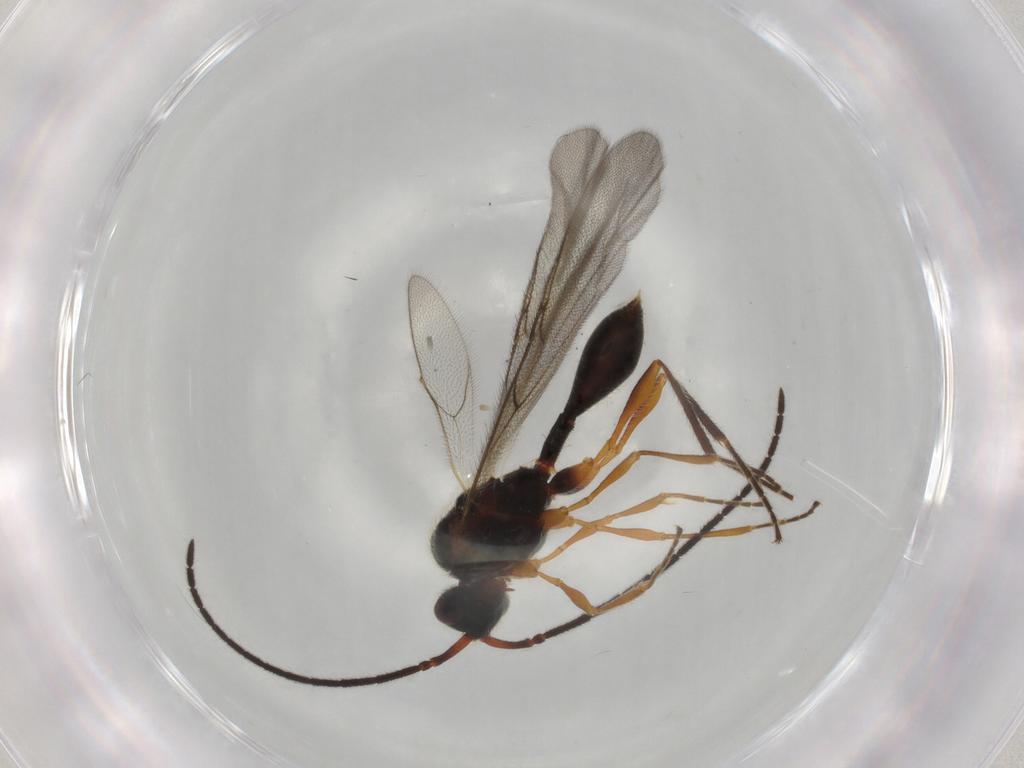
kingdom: Animalia
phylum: Arthropoda
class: Insecta
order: Hymenoptera
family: Diapriidae
